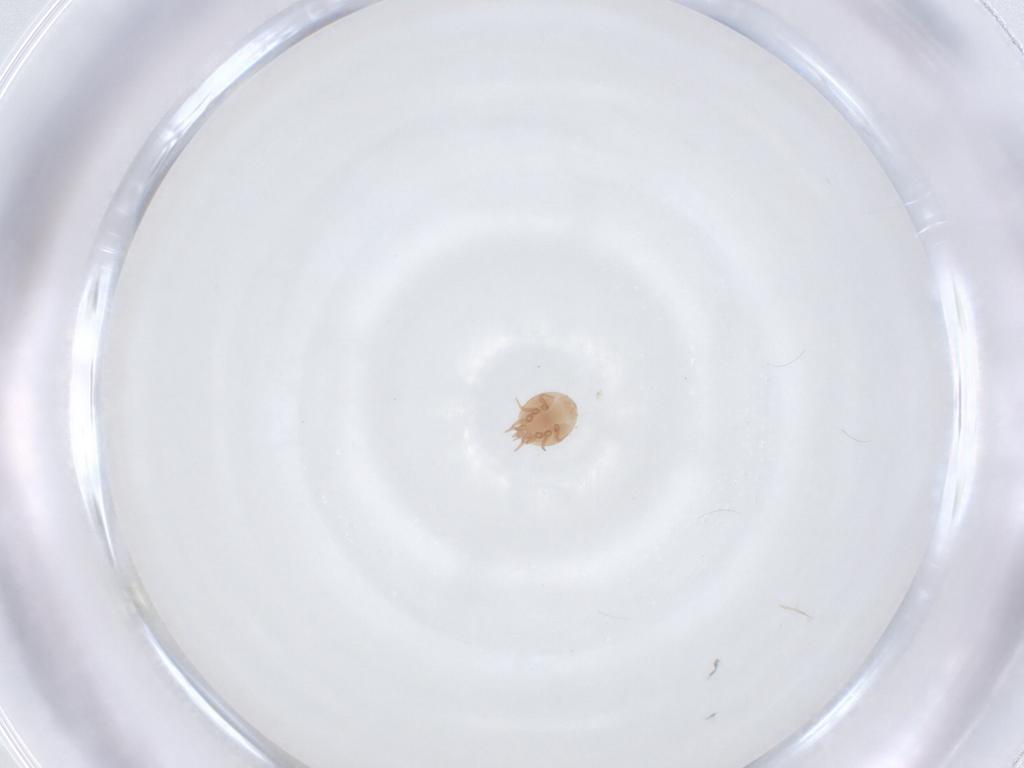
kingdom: Animalia
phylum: Arthropoda
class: Arachnida
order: Mesostigmata
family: Trematuridae
